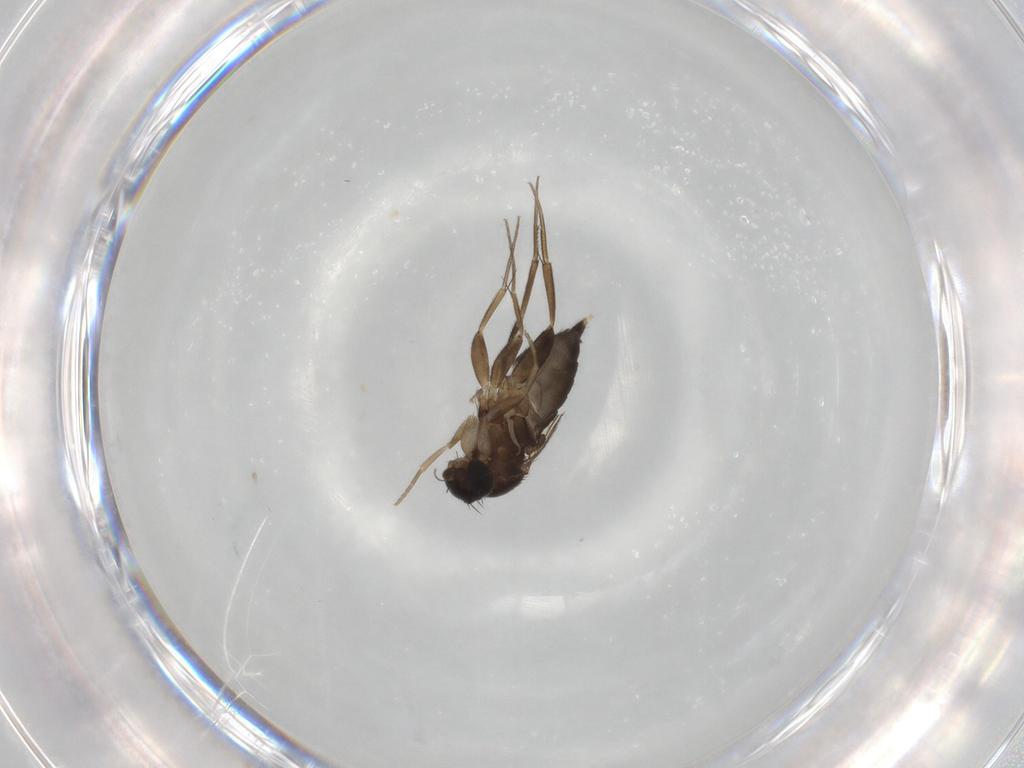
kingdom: Animalia
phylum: Arthropoda
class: Insecta
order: Diptera
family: Phoridae
